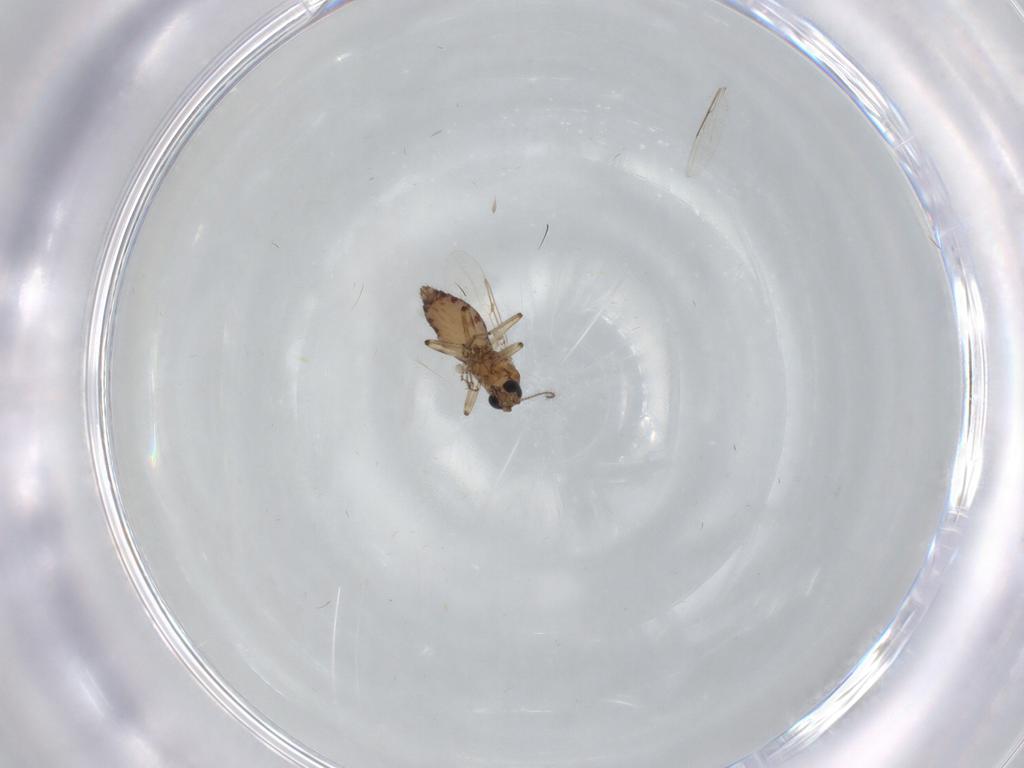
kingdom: Animalia
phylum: Arthropoda
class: Insecta
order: Diptera
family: Ceratopogonidae
